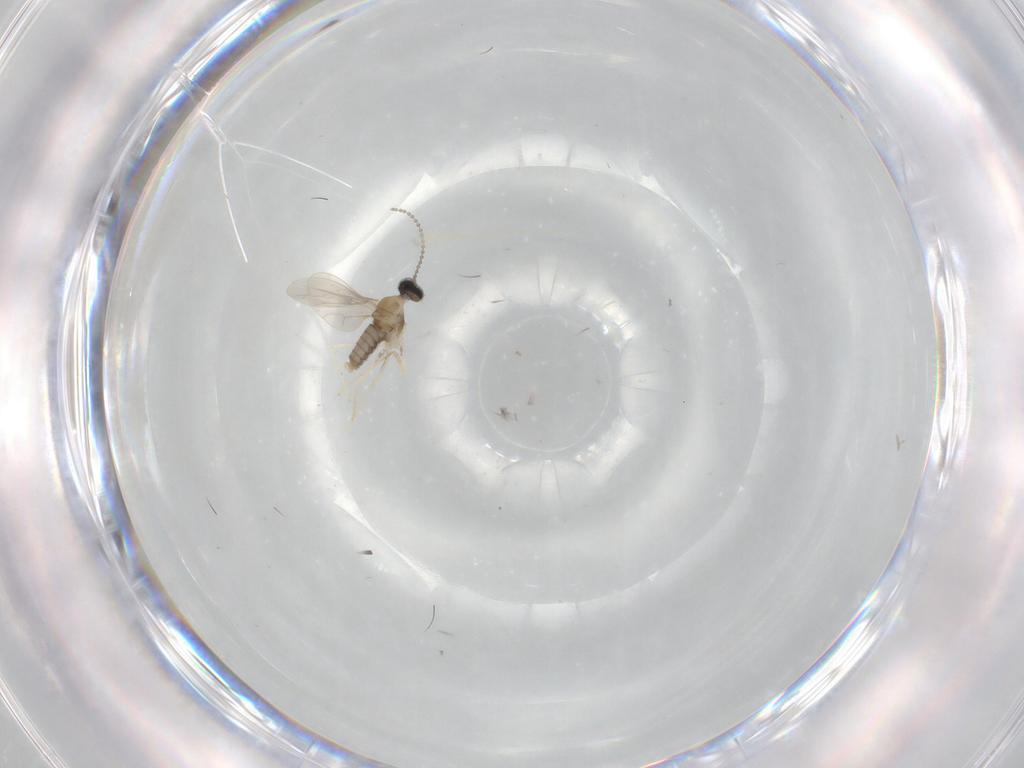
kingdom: Animalia
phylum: Arthropoda
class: Insecta
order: Diptera
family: Cecidomyiidae
